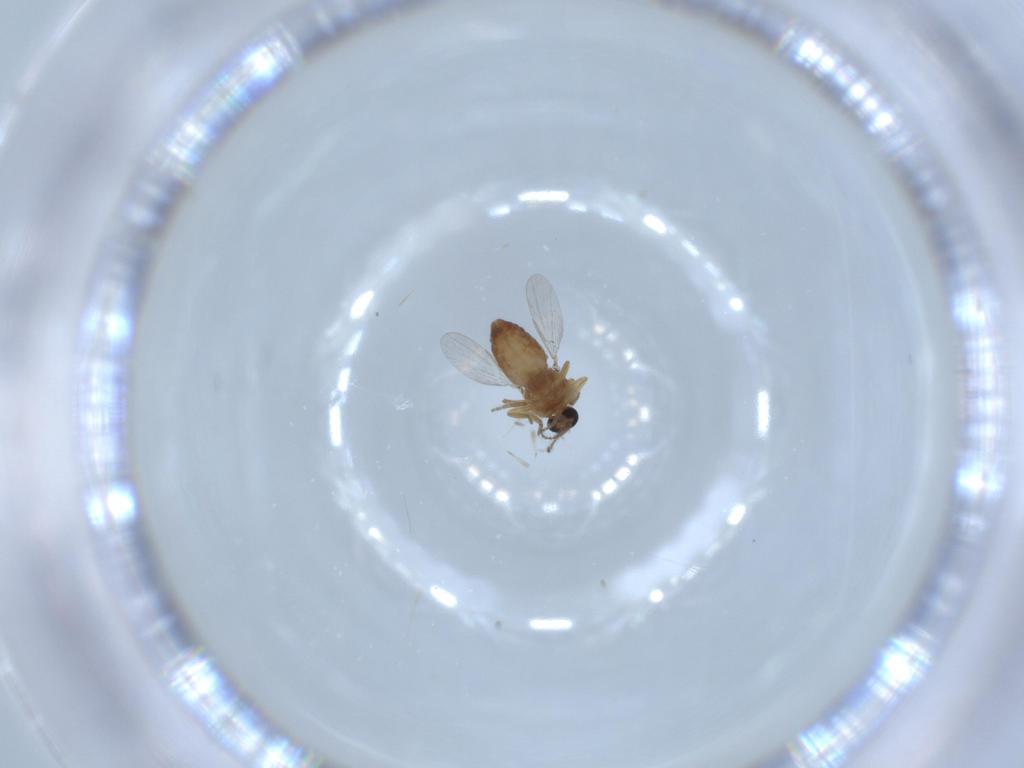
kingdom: Animalia
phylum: Arthropoda
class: Insecta
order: Diptera
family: Ceratopogonidae
